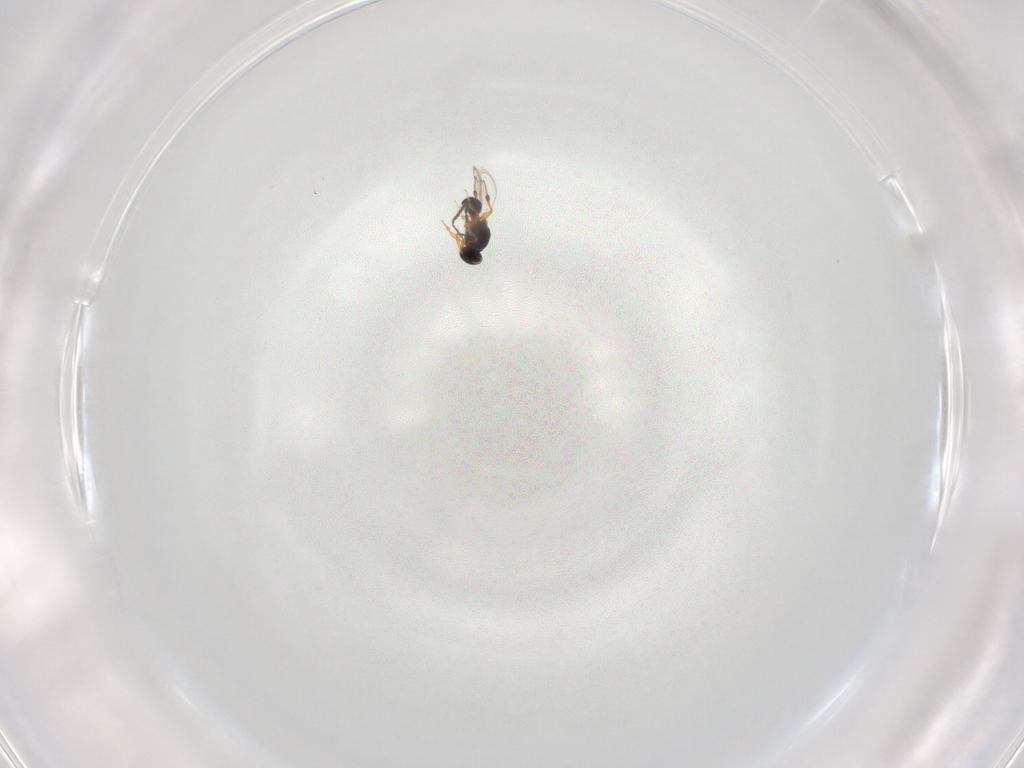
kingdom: Animalia
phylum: Arthropoda
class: Insecta
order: Hymenoptera
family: Platygastridae
